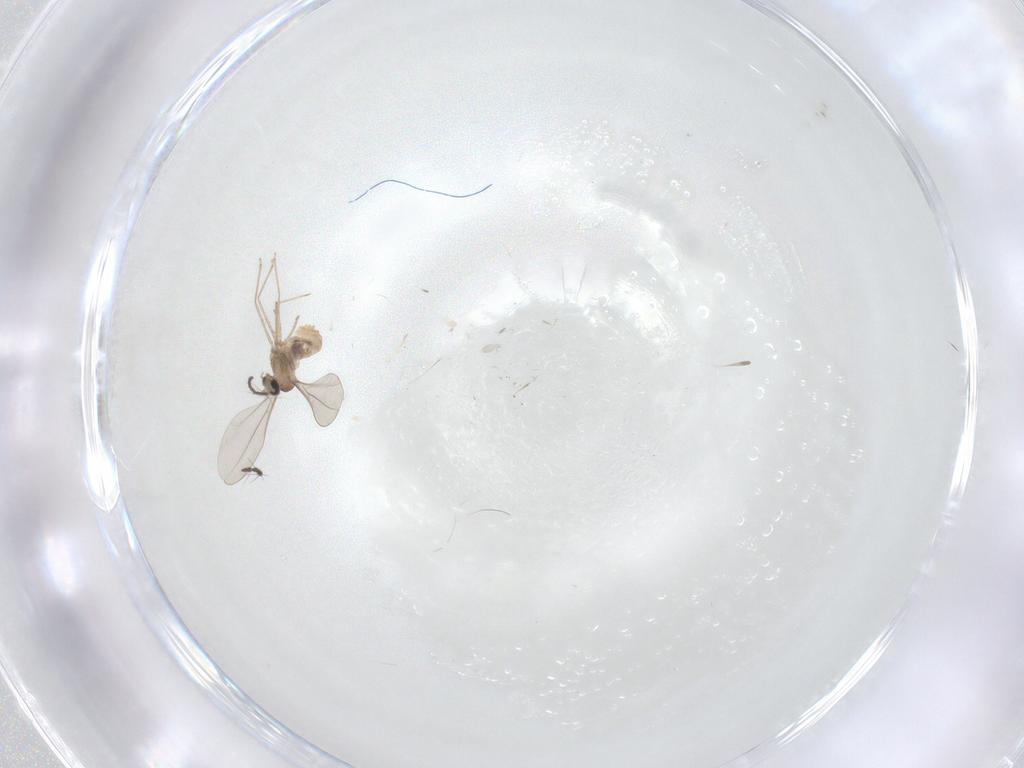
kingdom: Animalia
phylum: Arthropoda
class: Insecta
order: Diptera
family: Cecidomyiidae
